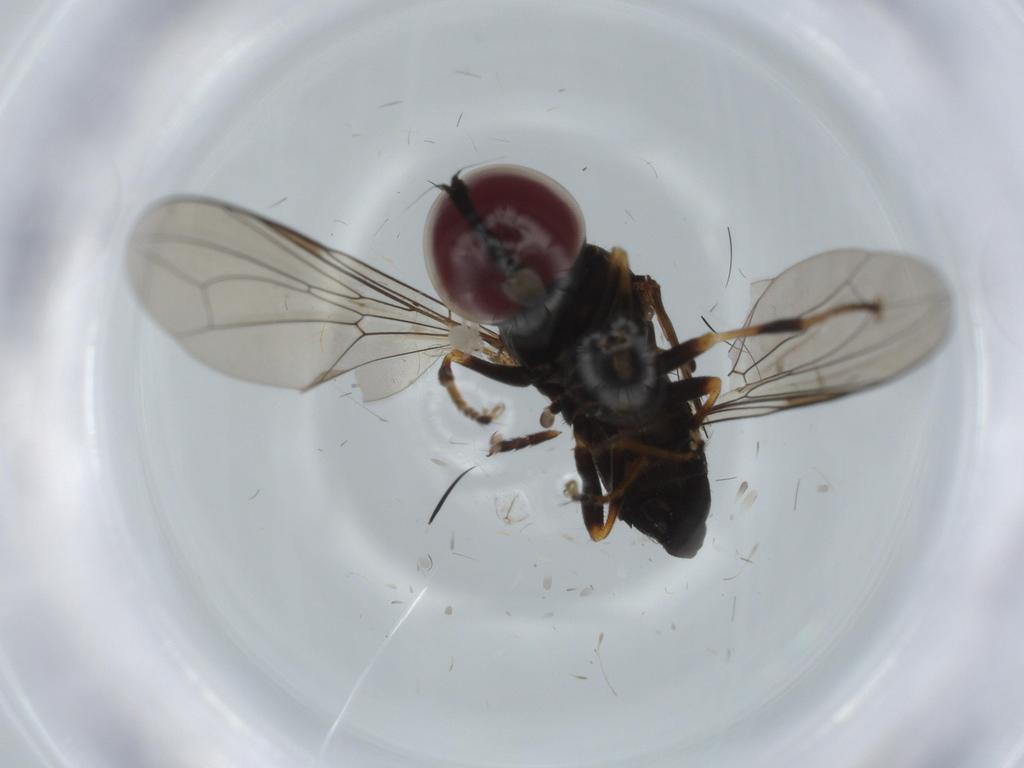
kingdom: Animalia
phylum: Arthropoda
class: Insecta
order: Diptera
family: Cecidomyiidae
